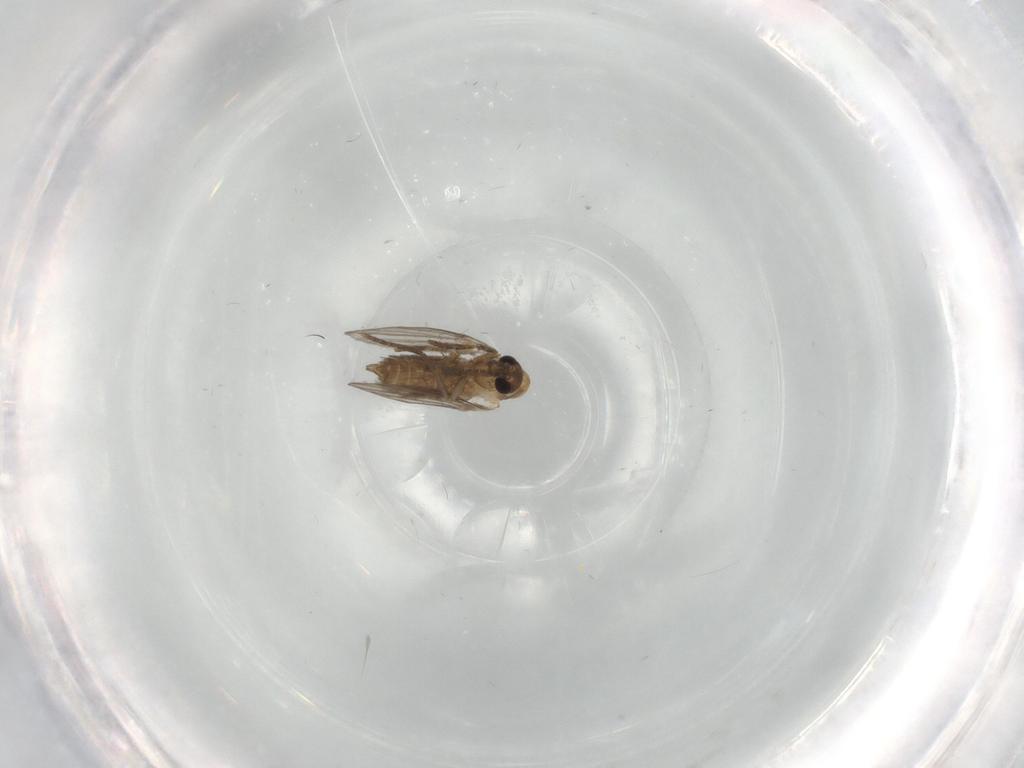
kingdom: Animalia
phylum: Arthropoda
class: Insecta
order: Diptera
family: Psychodidae
